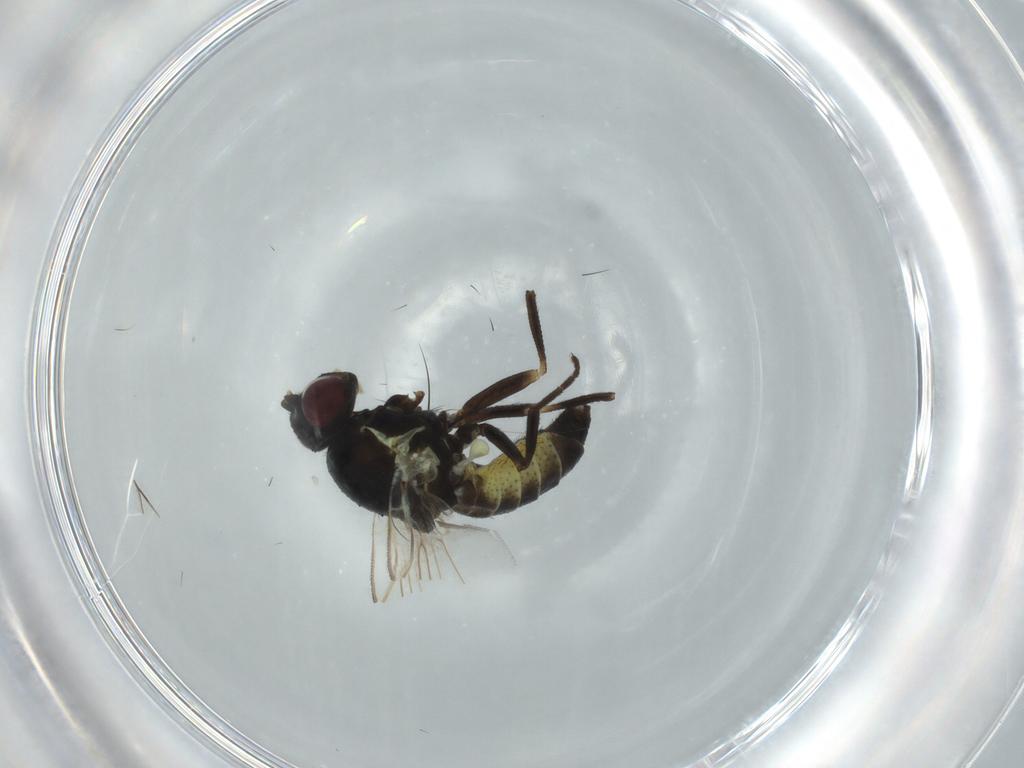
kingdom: Animalia
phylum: Arthropoda
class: Insecta
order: Diptera
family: Agromyzidae
